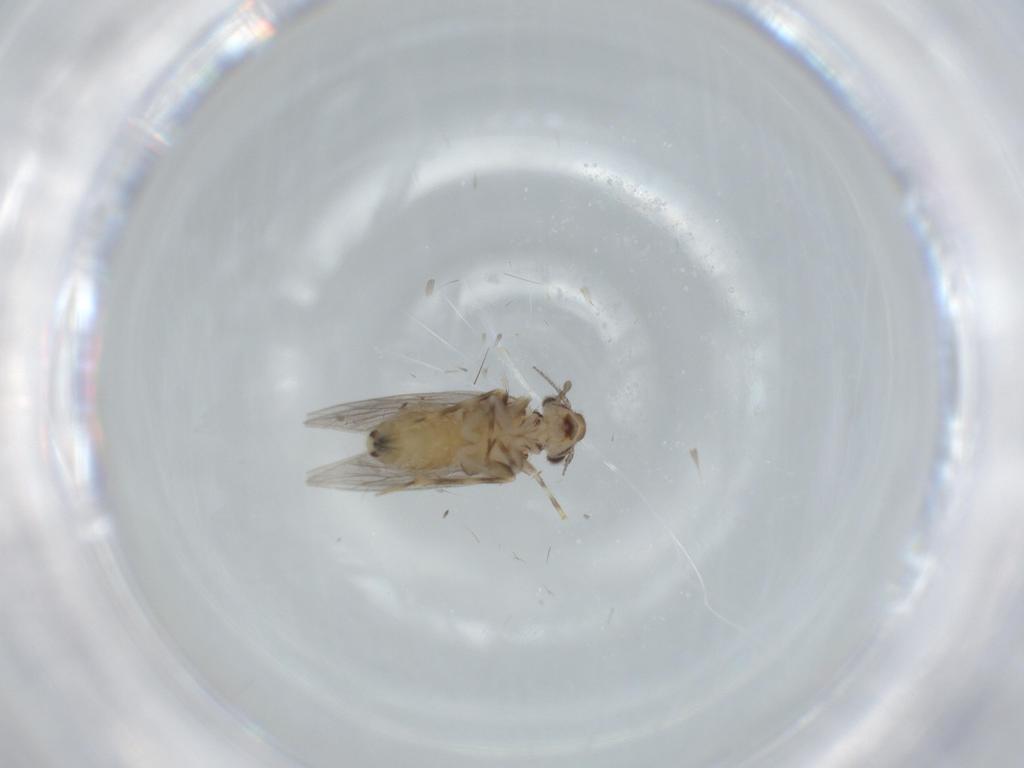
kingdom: Animalia
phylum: Arthropoda
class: Insecta
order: Psocodea
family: Lepidopsocidae
